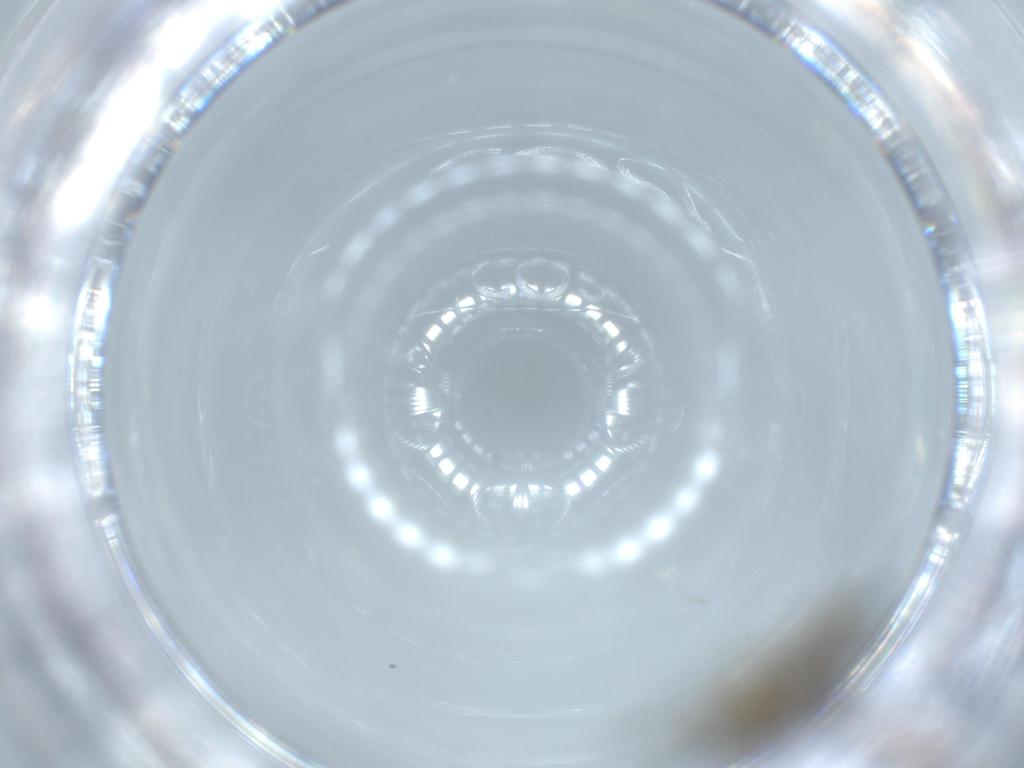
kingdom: Animalia
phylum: Arthropoda
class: Insecta
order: Diptera
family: Cecidomyiidae
